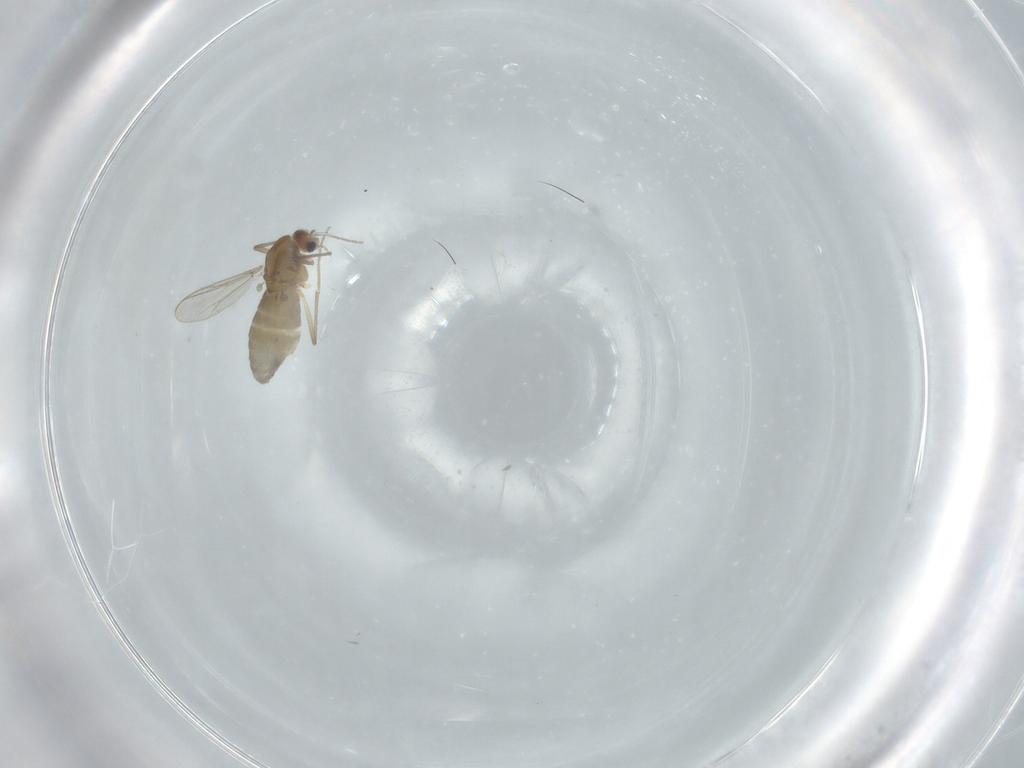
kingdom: Animalia
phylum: Arthropoda
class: Insecta
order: Diptera
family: Chironomidae
